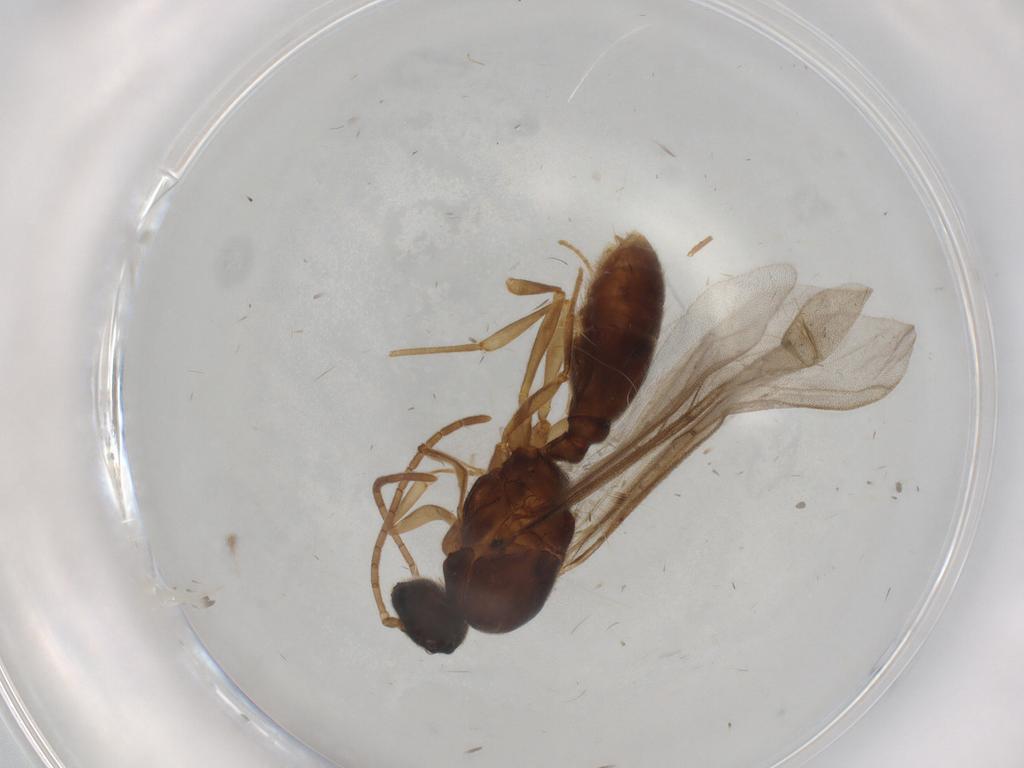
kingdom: Animalia
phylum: Arthropoda
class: Insecta
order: Hymenoptera
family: Formicidae
